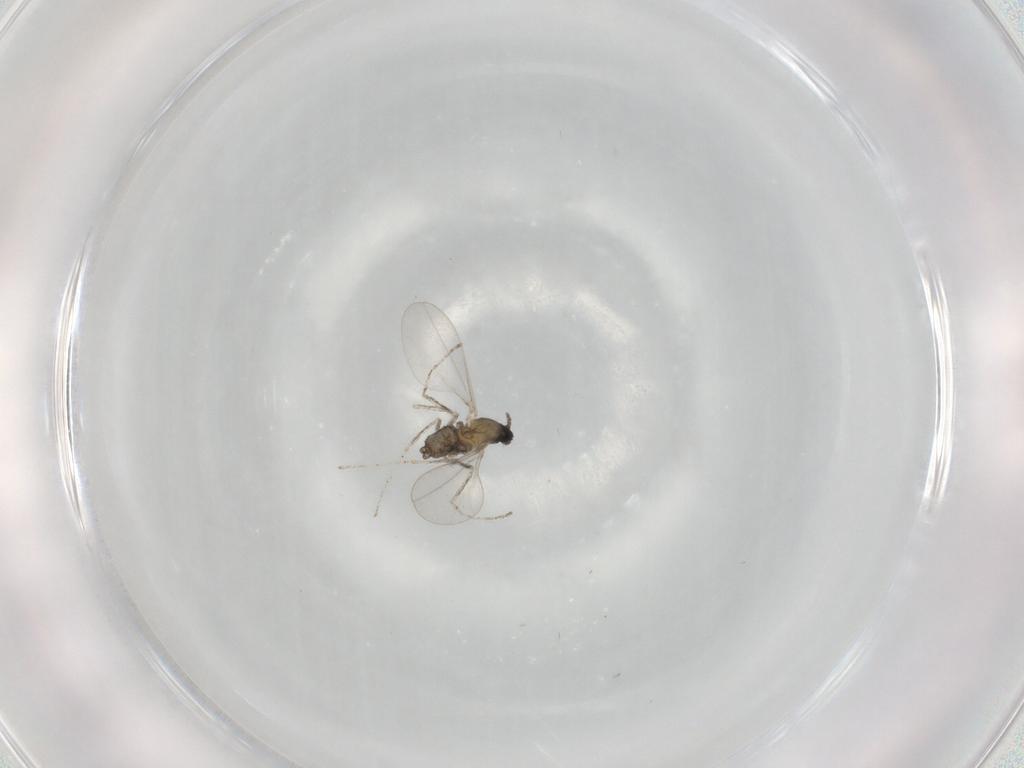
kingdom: Animalia
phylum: Arthropoda
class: Insecta
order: Diptera
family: Cecidomyiidae
